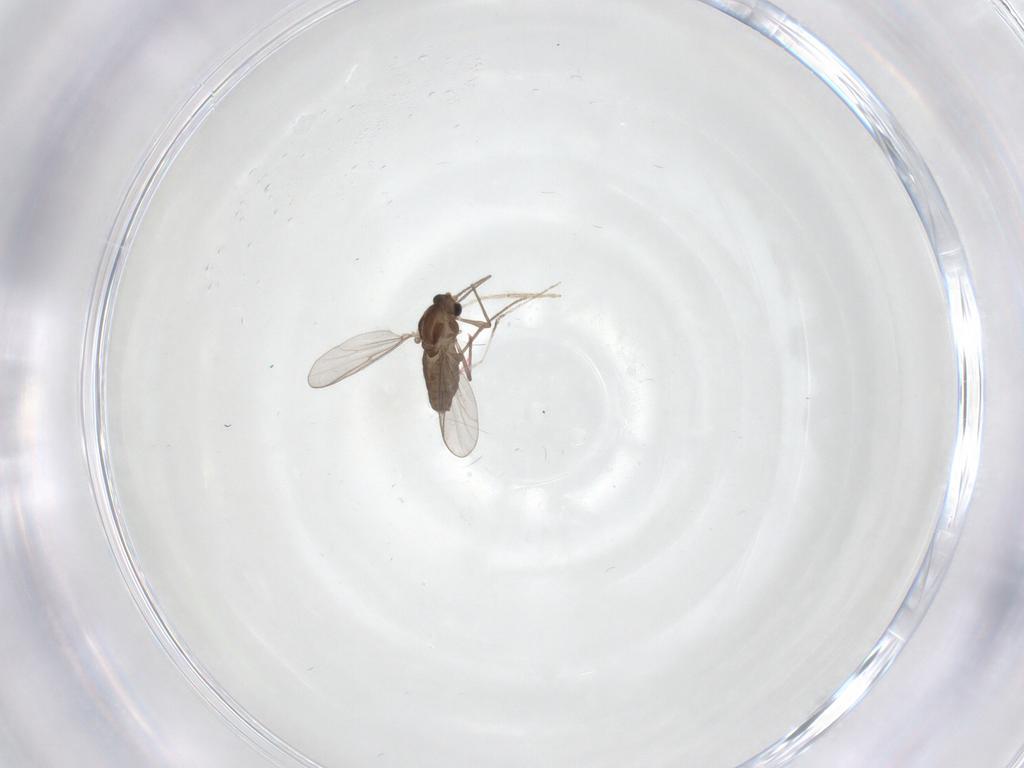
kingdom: Animalia
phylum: Arthropoda
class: Insecta
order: Diptera
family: Chironomidae
